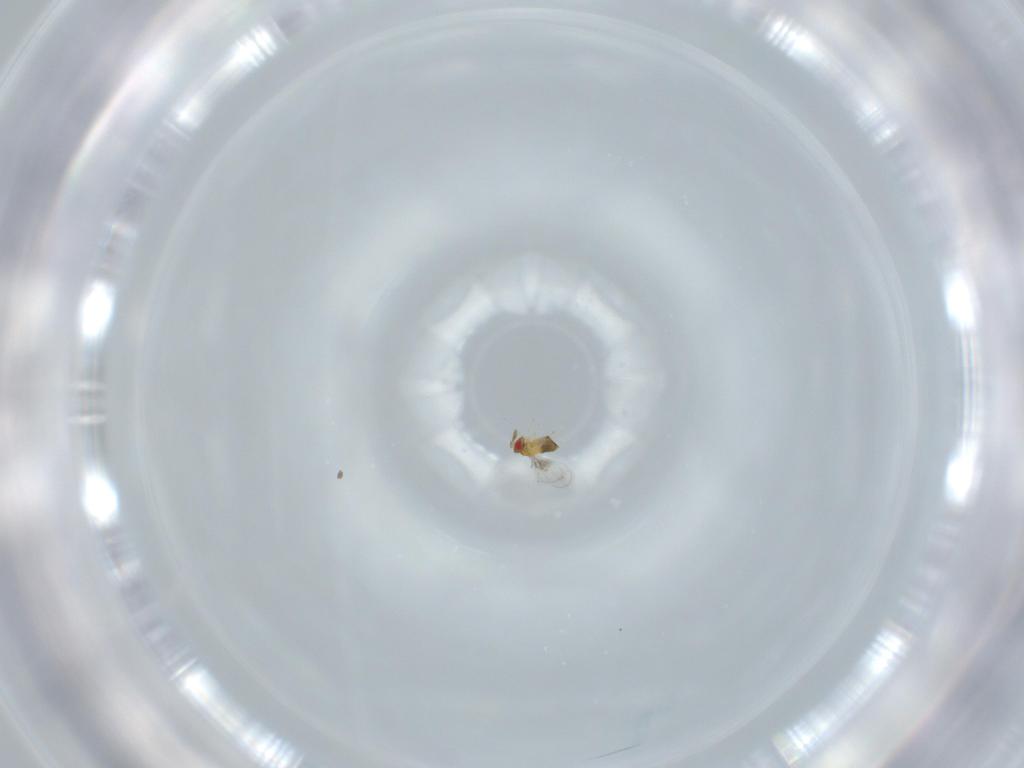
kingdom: Animalia
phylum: Arthropoda
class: Insecta
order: Hymenoptera
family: Trichogrammatidae
